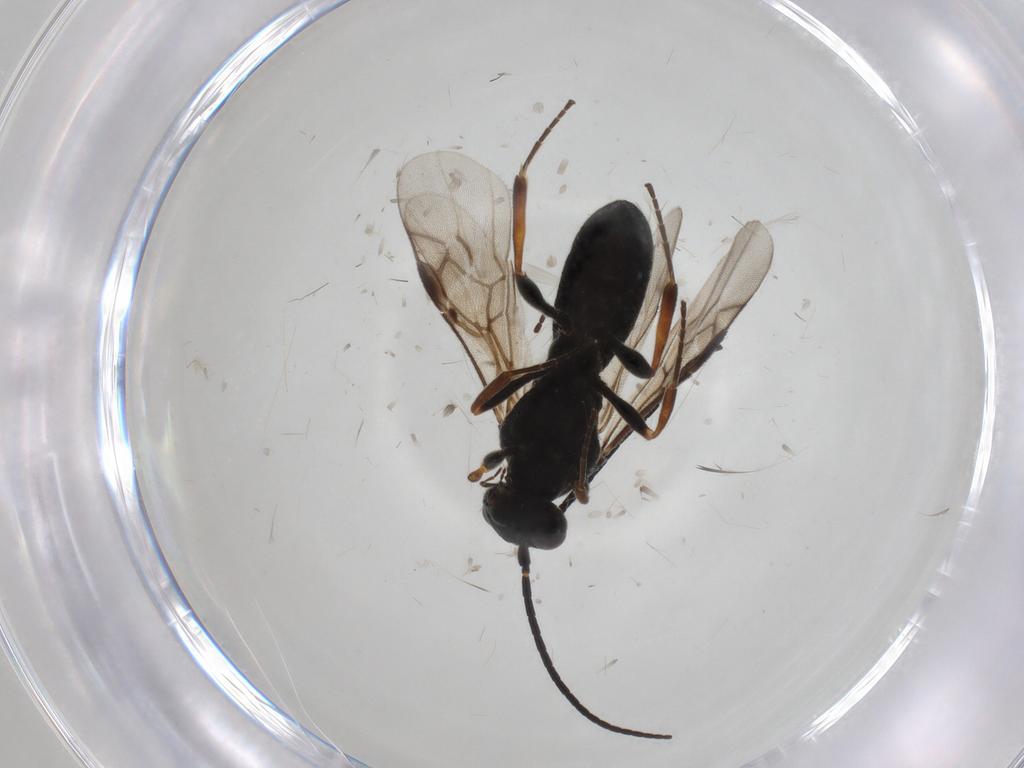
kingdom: Animalia
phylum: Arthropoda
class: Insecta
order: Hymenoptera
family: Braconidae
